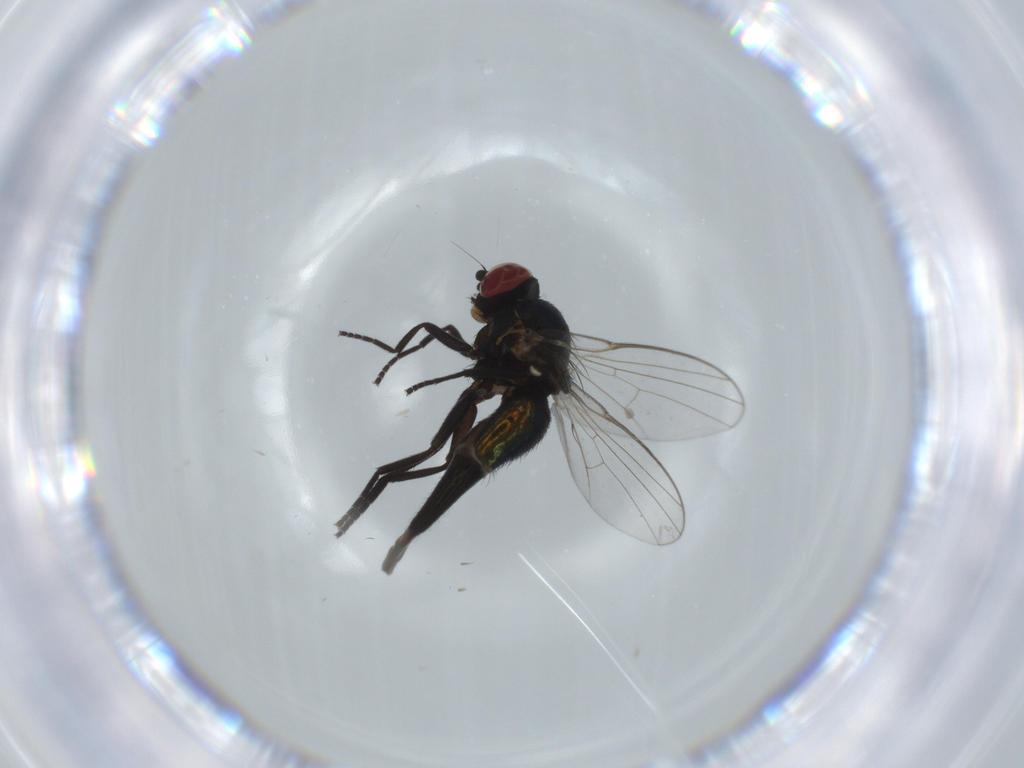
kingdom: Animalia
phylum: Arthropoda
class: Insecta
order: Diptera
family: Agromyzidae
